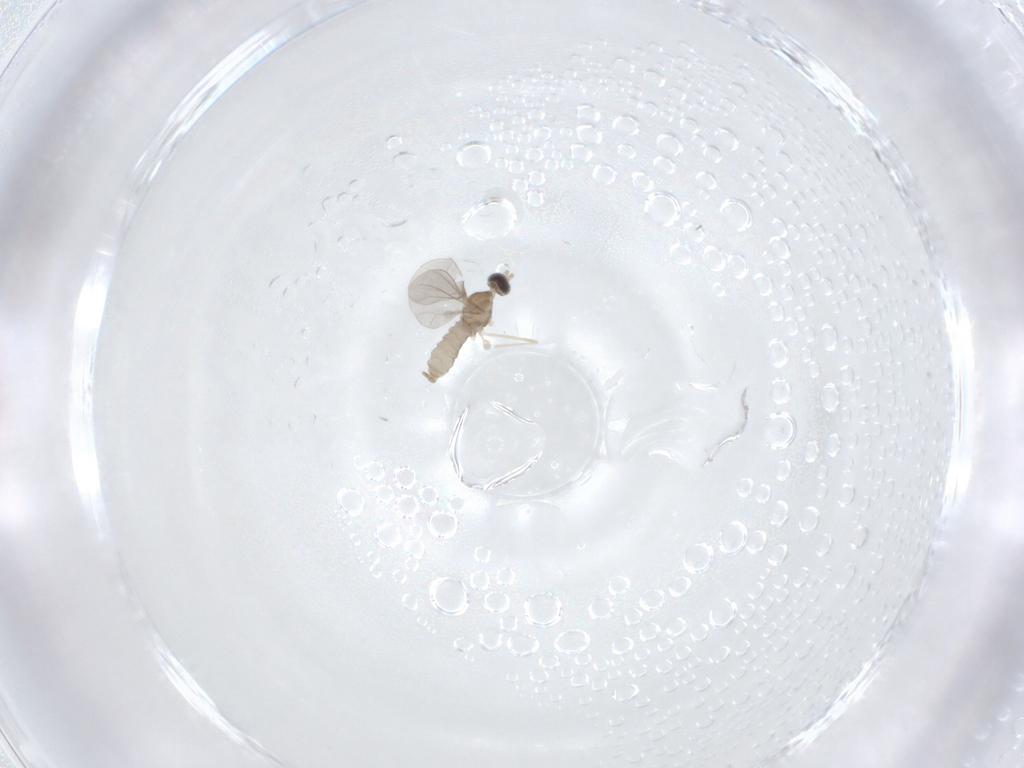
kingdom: Animalia
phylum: Arthropoda
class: Insecta
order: Diptera
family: Cecidomyiidae
